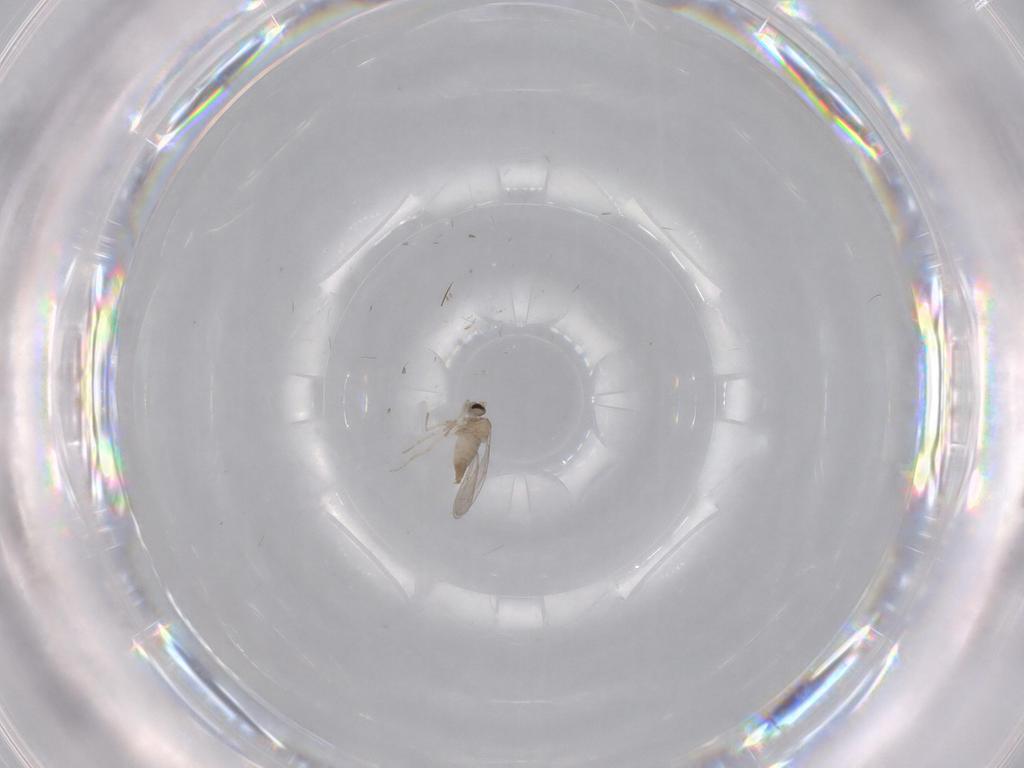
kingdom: Animalia
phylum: Arthropoda
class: Insecta
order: Diptera
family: Cecidomyiidae
